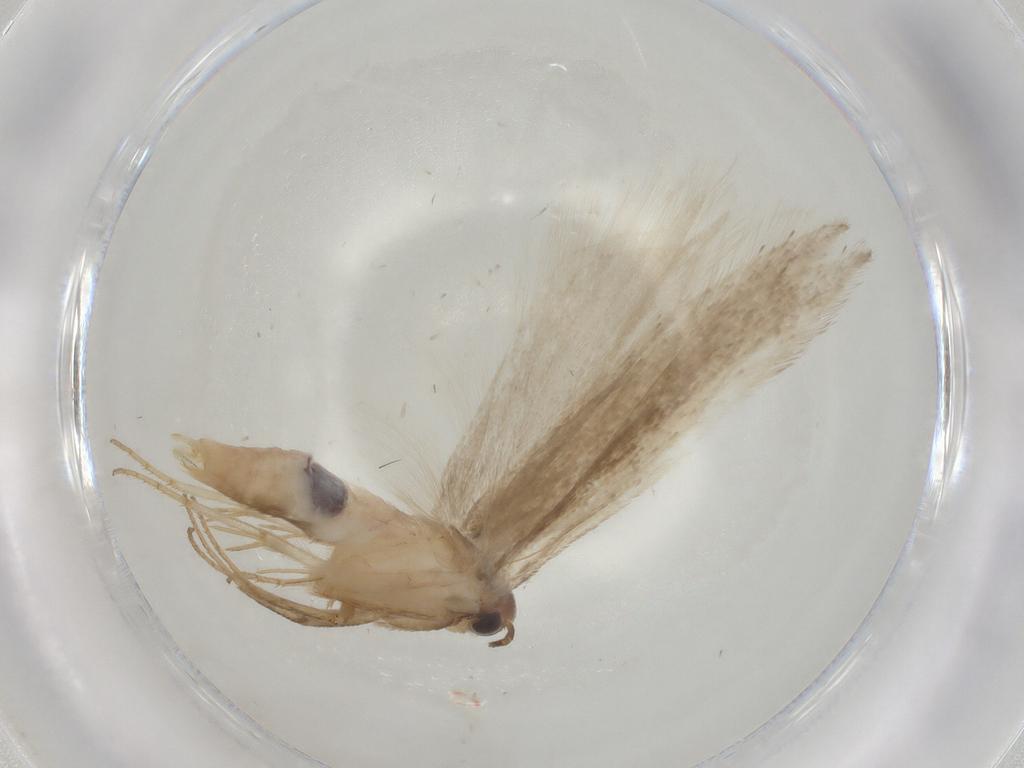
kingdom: Animalia
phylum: Arthropoda
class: Insecta
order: Lepidoptera
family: Gelechiidae
